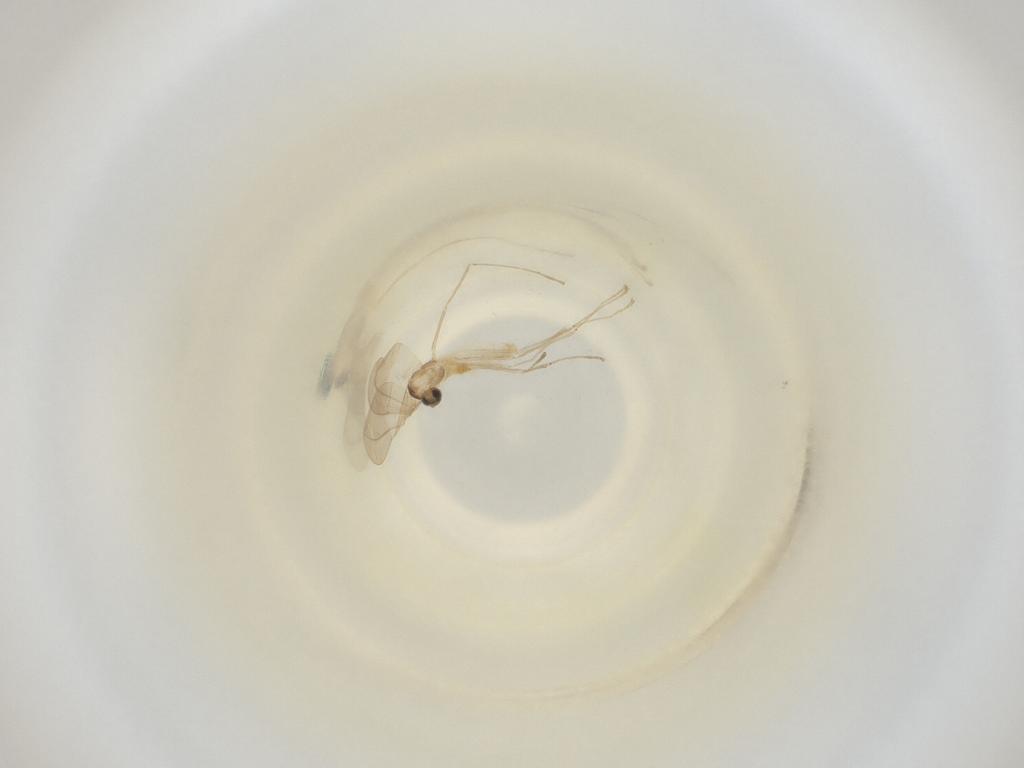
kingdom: Animalia
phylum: Arthropoda
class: Insecta
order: Diptera
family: Cecidomyiidae
